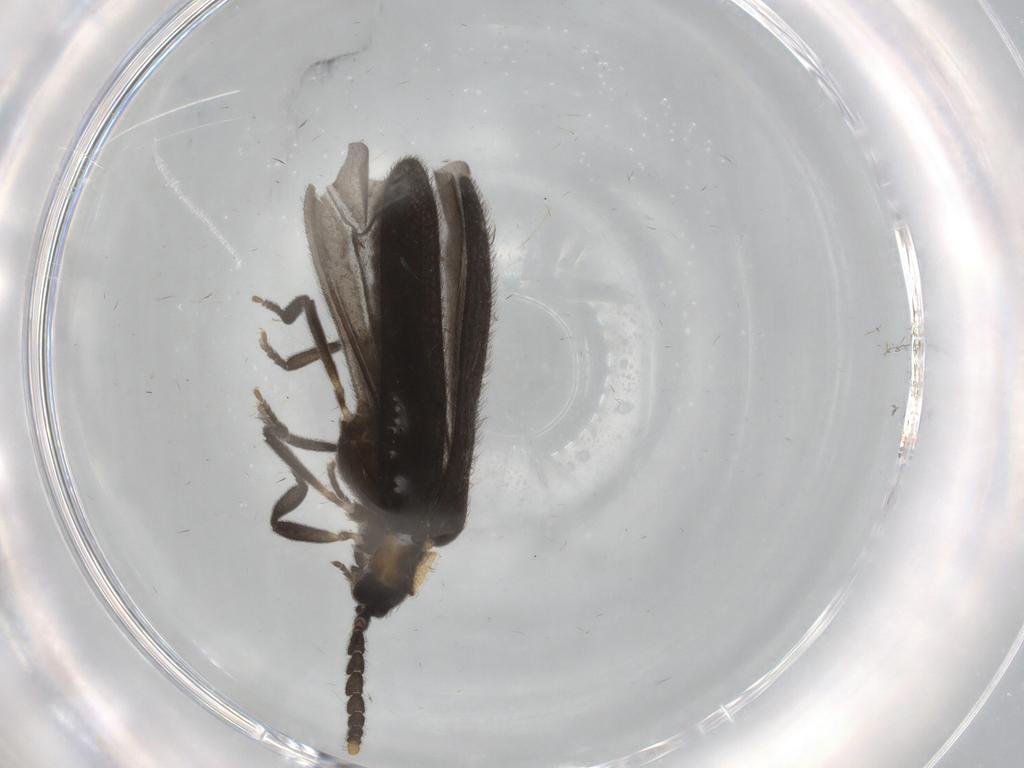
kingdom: Animalia
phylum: Arthropoda
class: Insecta
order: Coleoptera
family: Lycidae
